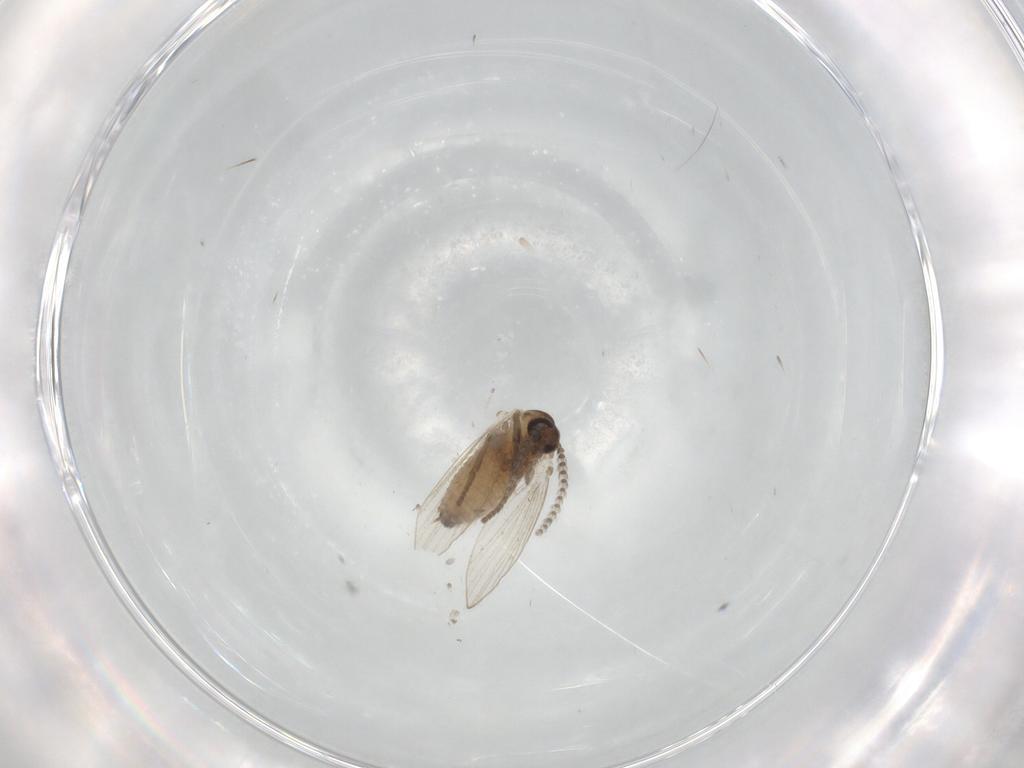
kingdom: Animalia
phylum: Arthropoda
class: Insecta
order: Diptera
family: Psychodidae
